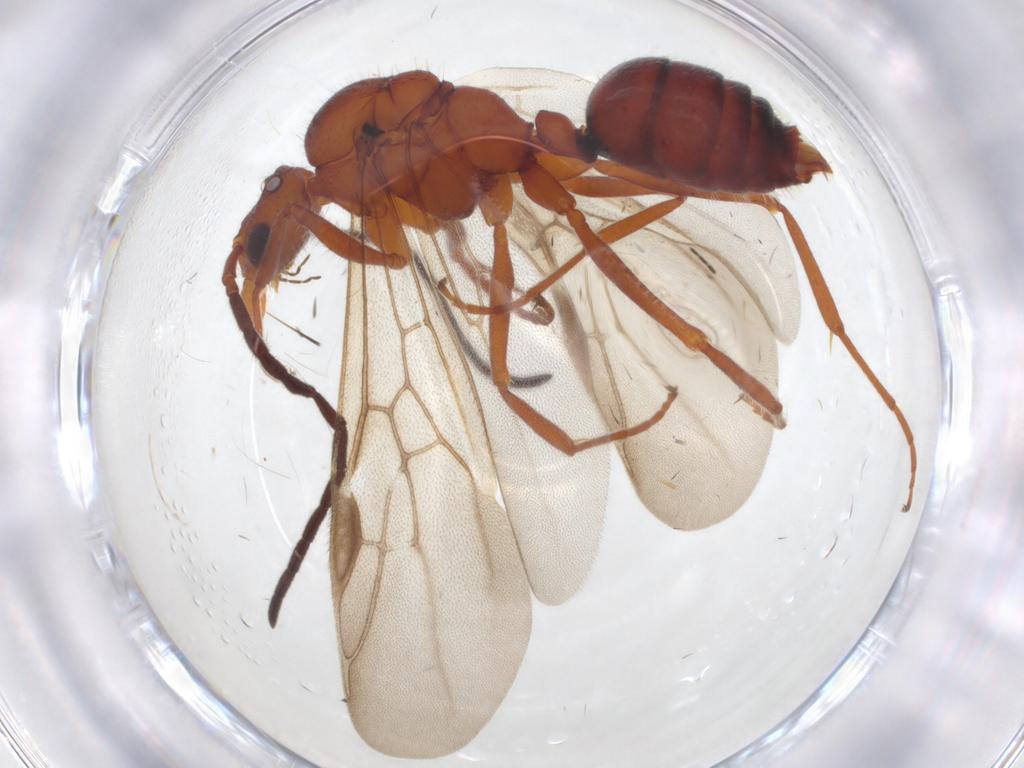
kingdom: Animalia
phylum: Arthropoda
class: Insecta
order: Hymenoptera
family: Formicidae
